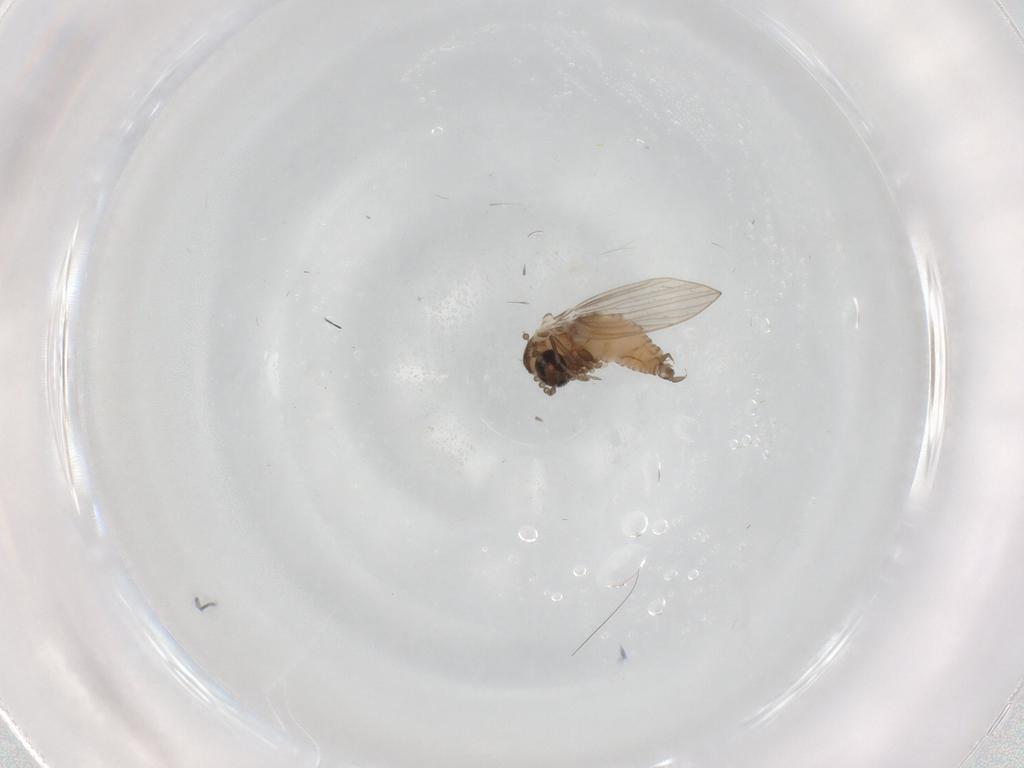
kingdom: Animalia
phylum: Arthropoda
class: Insecta
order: Diptera
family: Psychodidae
